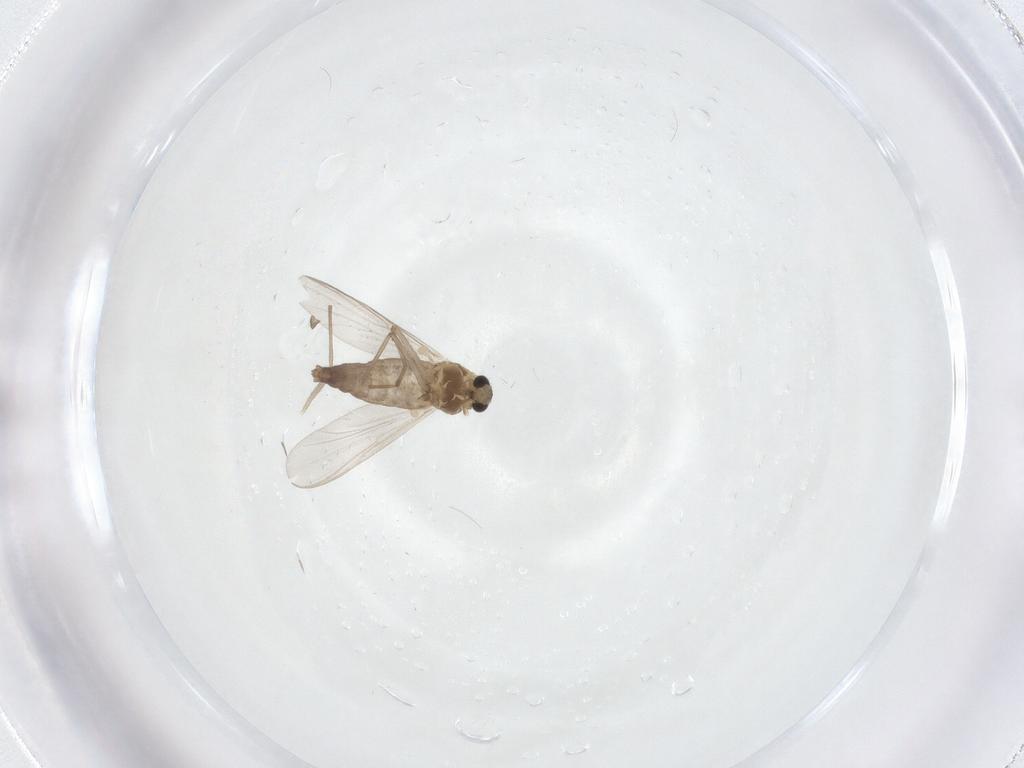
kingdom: Animalia
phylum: Arthropoda
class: Insecta
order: Diptera
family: Chironomidae
